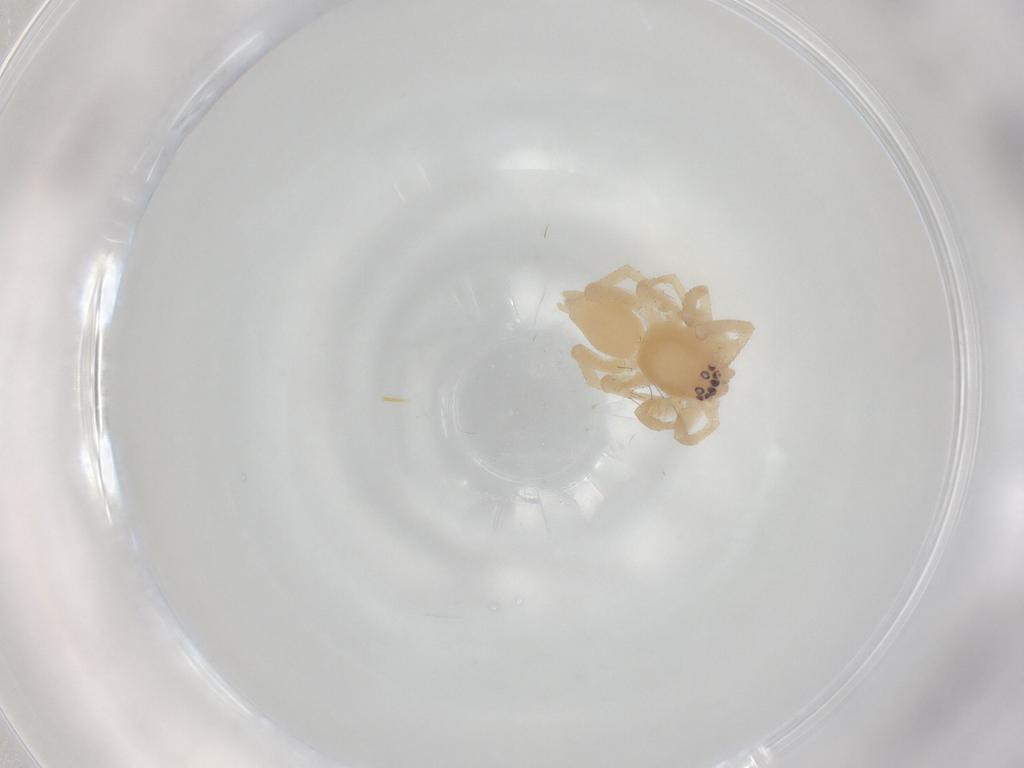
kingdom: Animalia
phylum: Arthropoda
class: Arachnida
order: Araneae
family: Clubionidae
